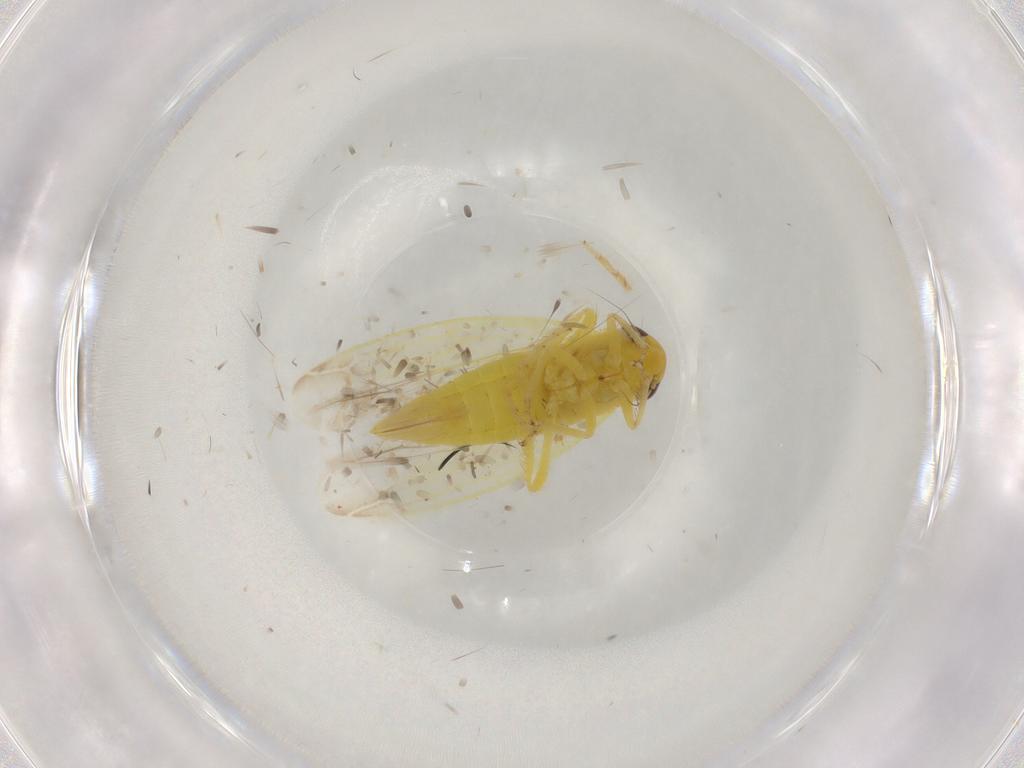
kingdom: Animalia
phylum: Arthropoda
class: Insecta
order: Hemiptera
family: Cicadellidae
